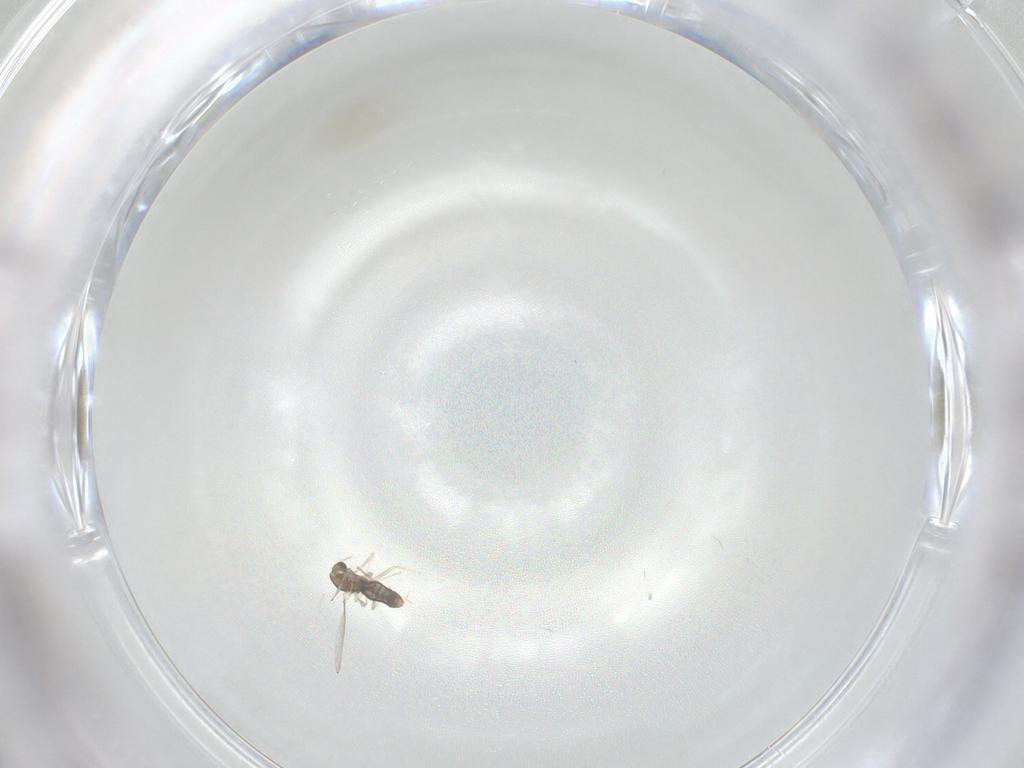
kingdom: Animalia
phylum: Arthropoda
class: Insecta
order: Diptera
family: Chironomidae
